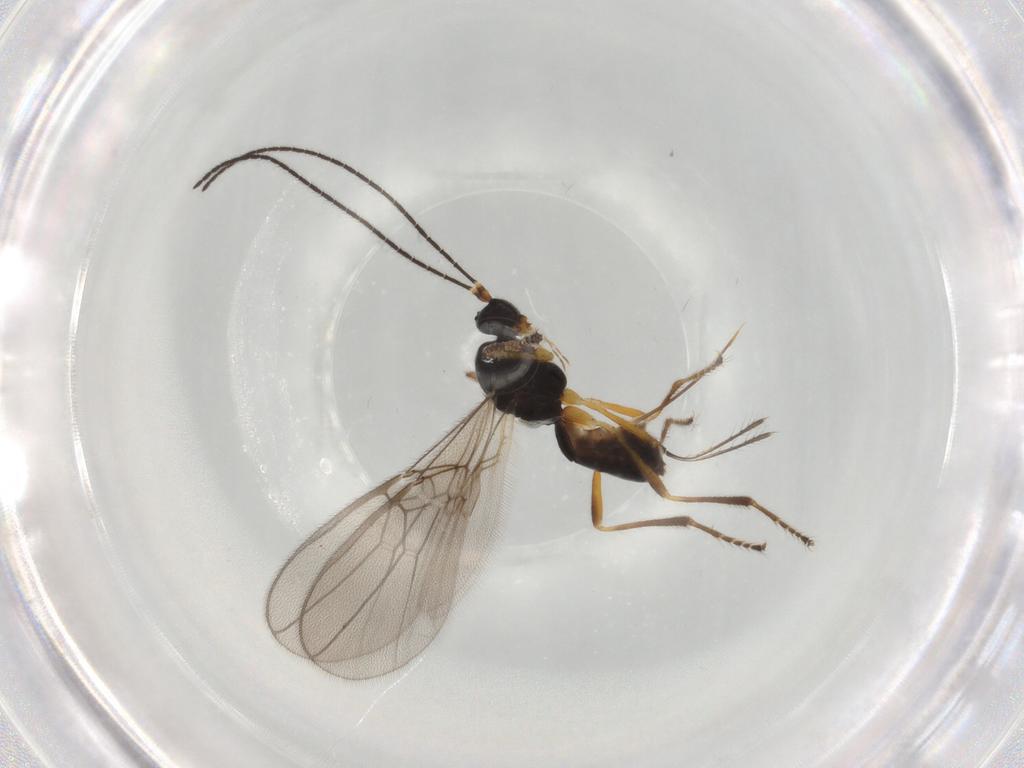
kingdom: Animalia
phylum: Arthropoda
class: Insecta
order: Hymenoptera
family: Braconidae
